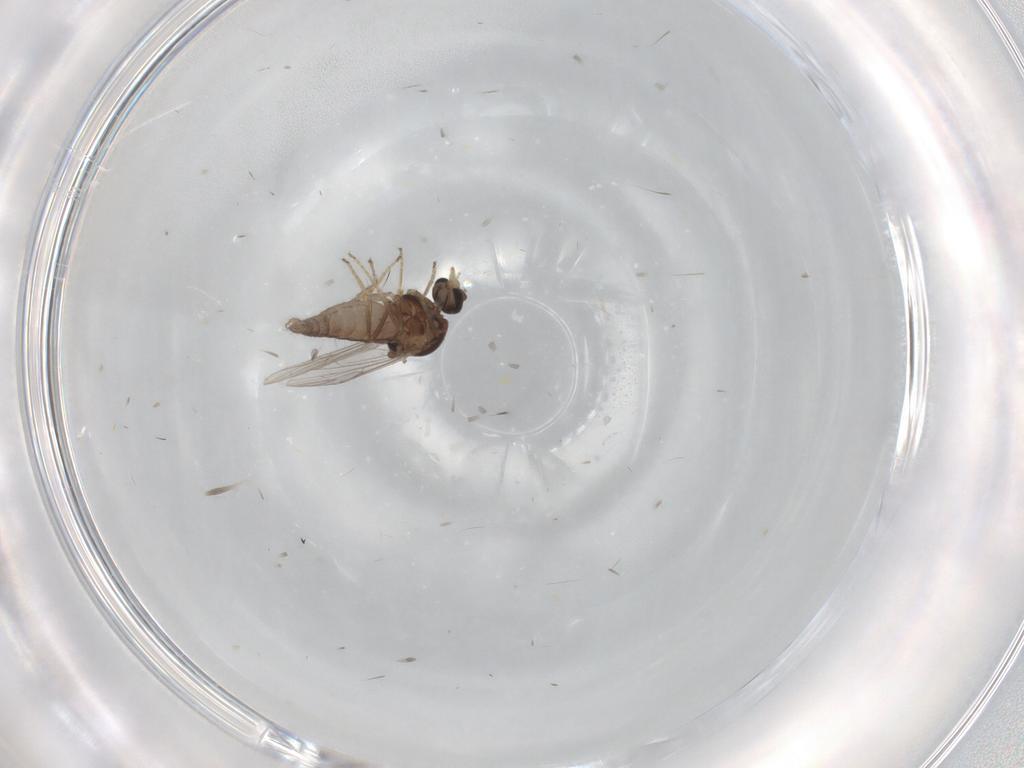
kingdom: Animalia
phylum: Arthropoda
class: Insecta
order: Diptera
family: Ceratopogonidae
